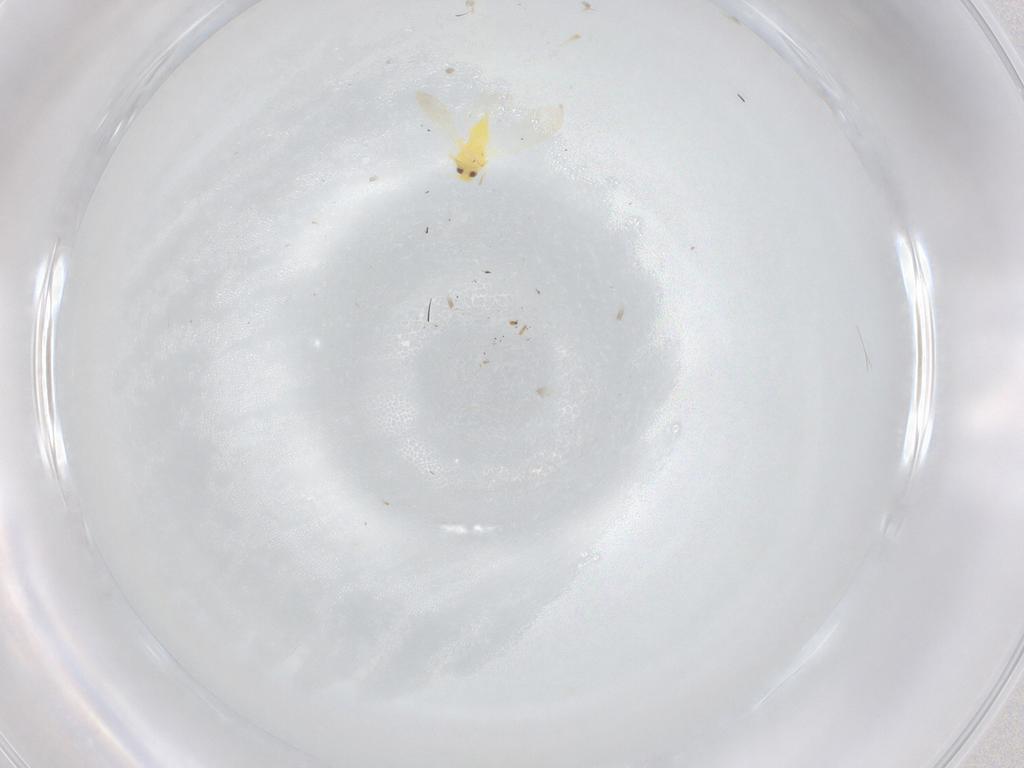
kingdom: Animalia
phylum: Arthropoda
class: Insecta
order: Hemiptera
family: Aleyrodidae
